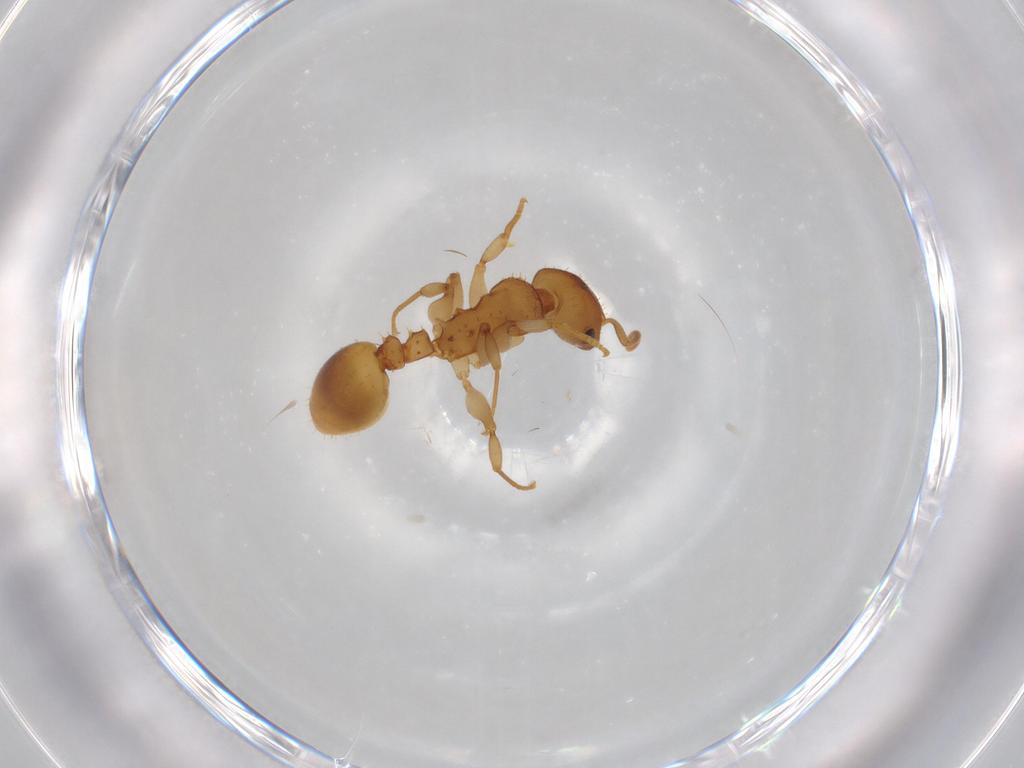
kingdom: Animalia
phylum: Arthropoda
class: Insecta
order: Hymenoptera
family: Formicidae
